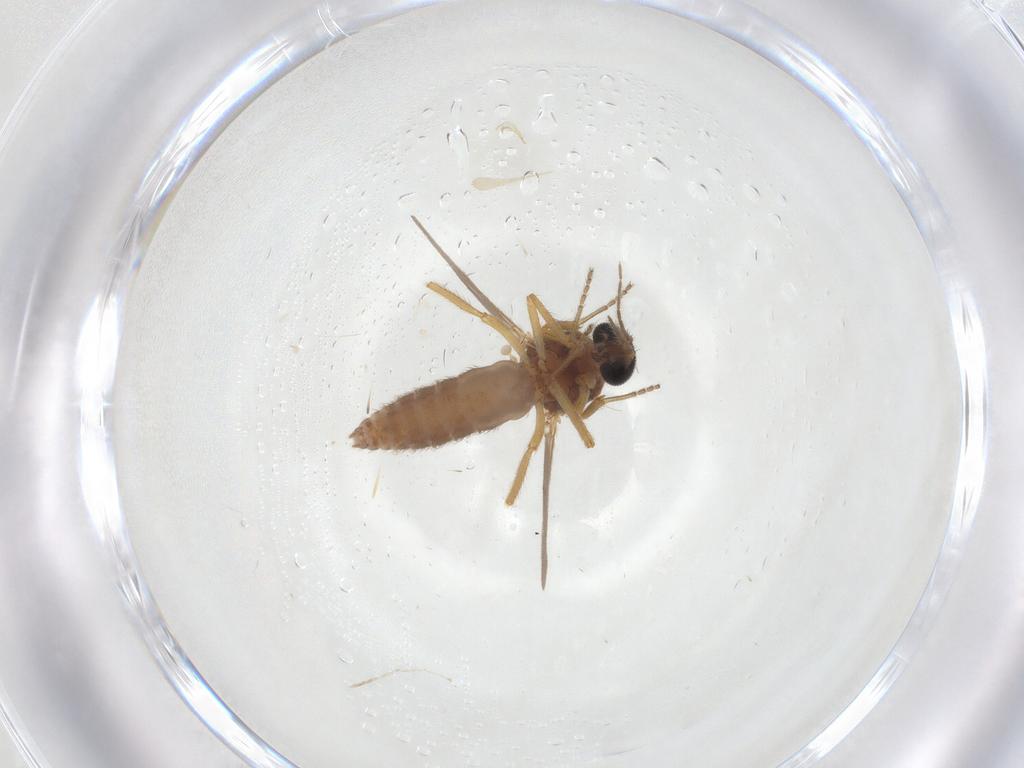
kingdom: Animalia
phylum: Arthropoda
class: Insecta
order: Diptera
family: Ceratopogonidae
